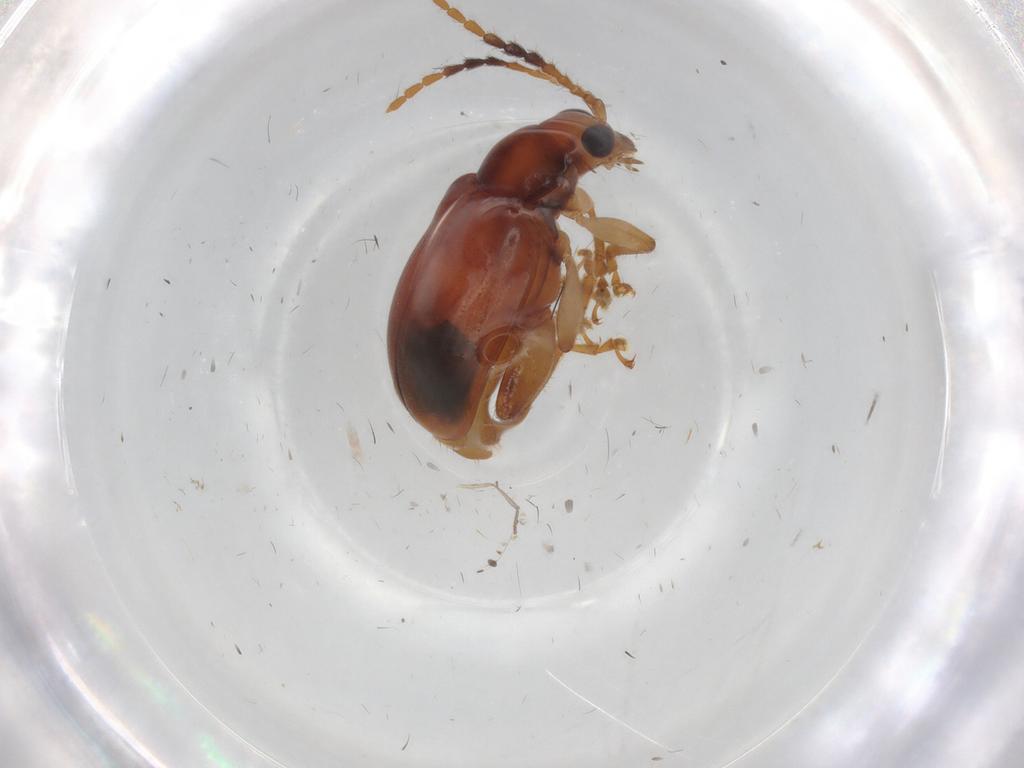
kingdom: Animalia
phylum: Arthropoda
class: Insecta
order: Coleoptera
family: Chrysomelidae
